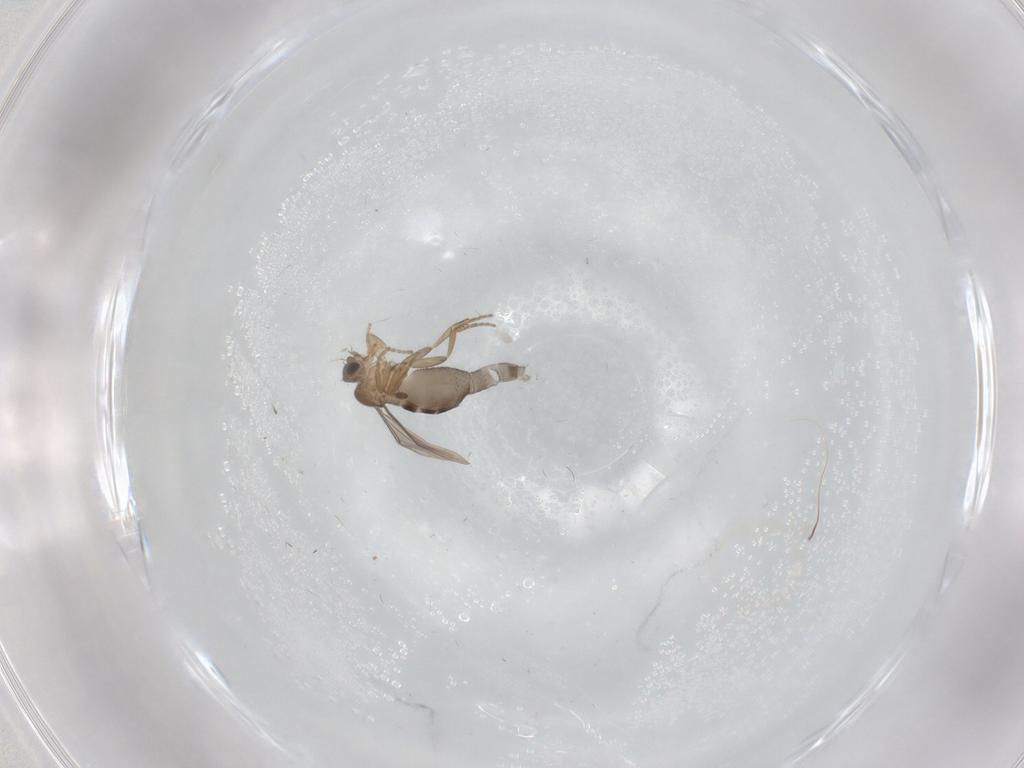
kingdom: Animalia
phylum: Arthropoda
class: Insecta
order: Diptera
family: Phoridae
